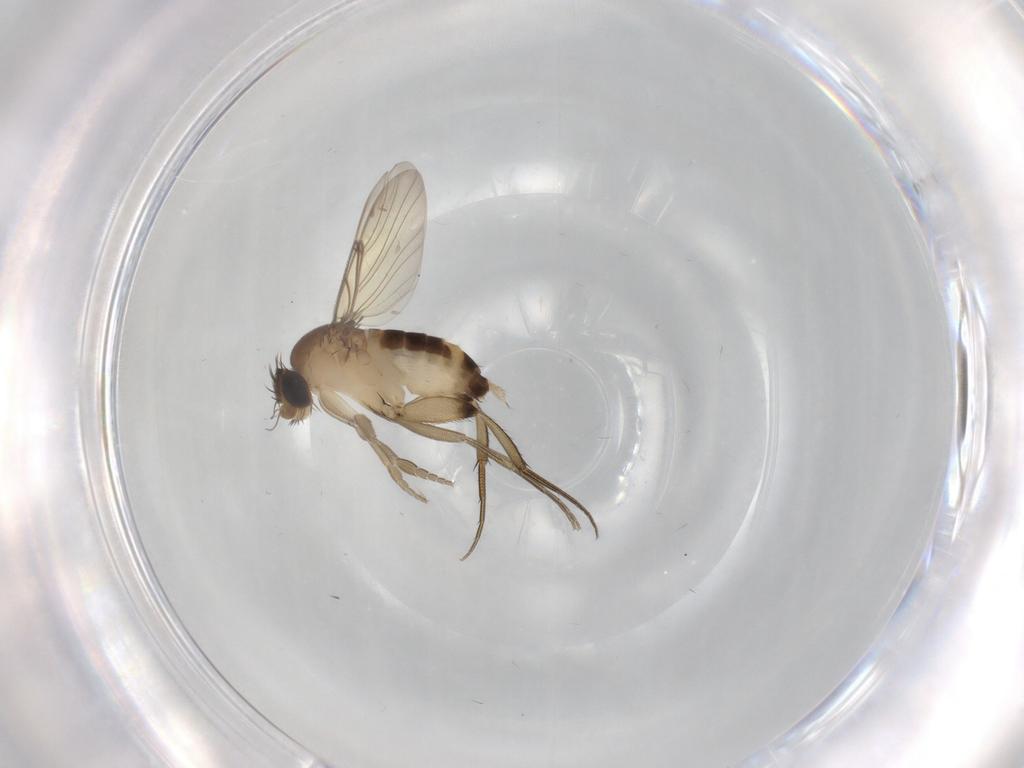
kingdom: Animalia
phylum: Arthropoda
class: Insecta
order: Diptera
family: Phoridae
